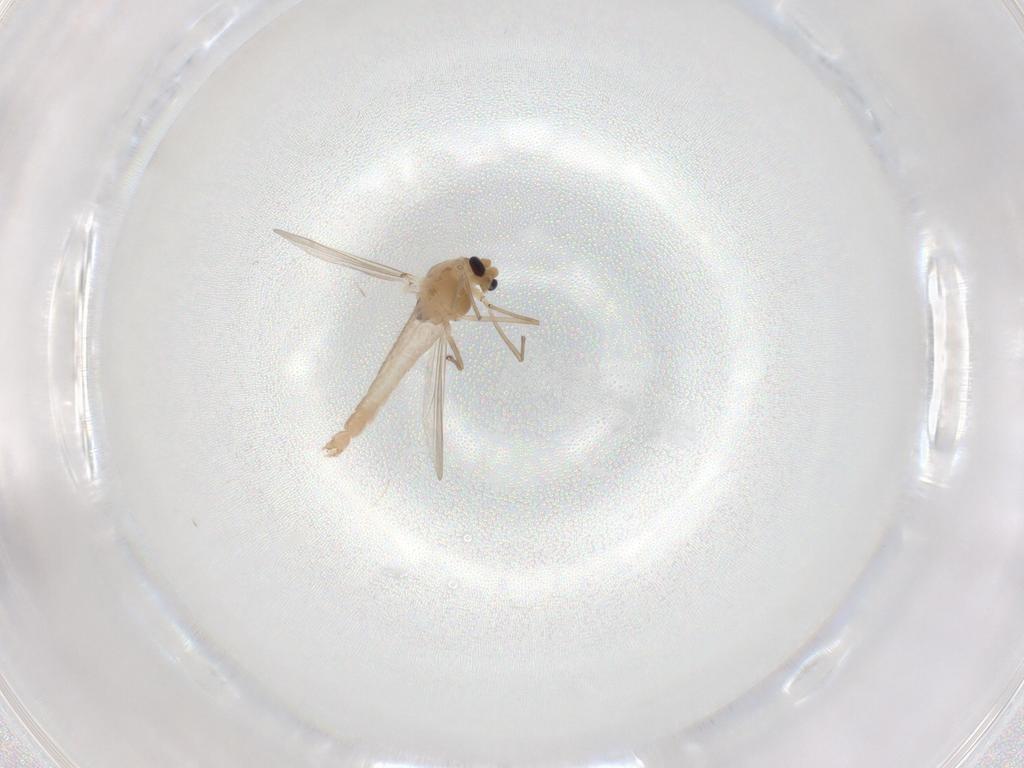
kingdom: Animalia
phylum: Arthropoda
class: Insecta
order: Diptera
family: Chironomidae
